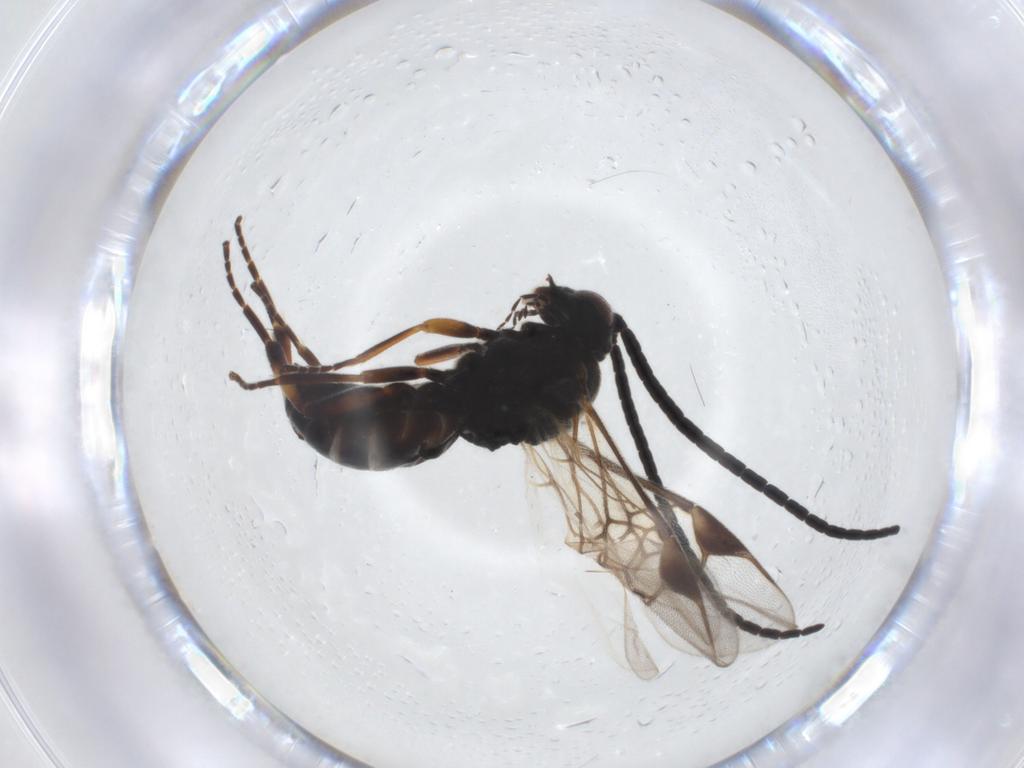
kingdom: Animalia
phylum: Arthropoda
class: Insecta
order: Hymenoptera
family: Braconidae
